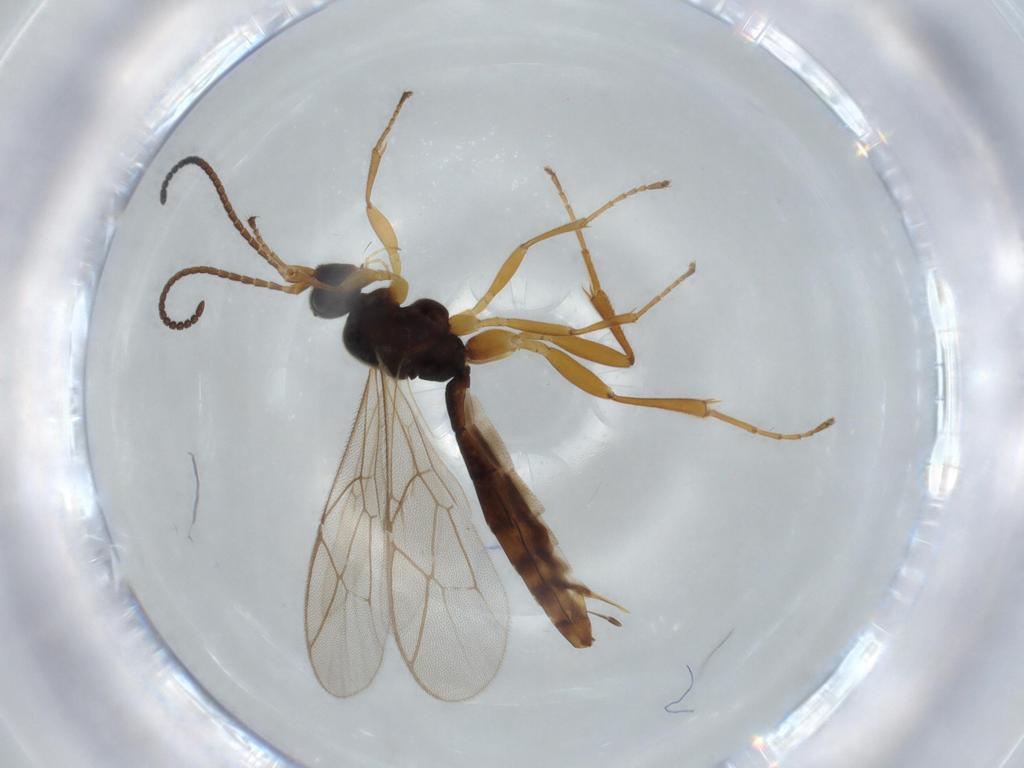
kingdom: Animalia
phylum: Arthropoda
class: Insecta
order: Hymenoptera
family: Ichneumonidae
